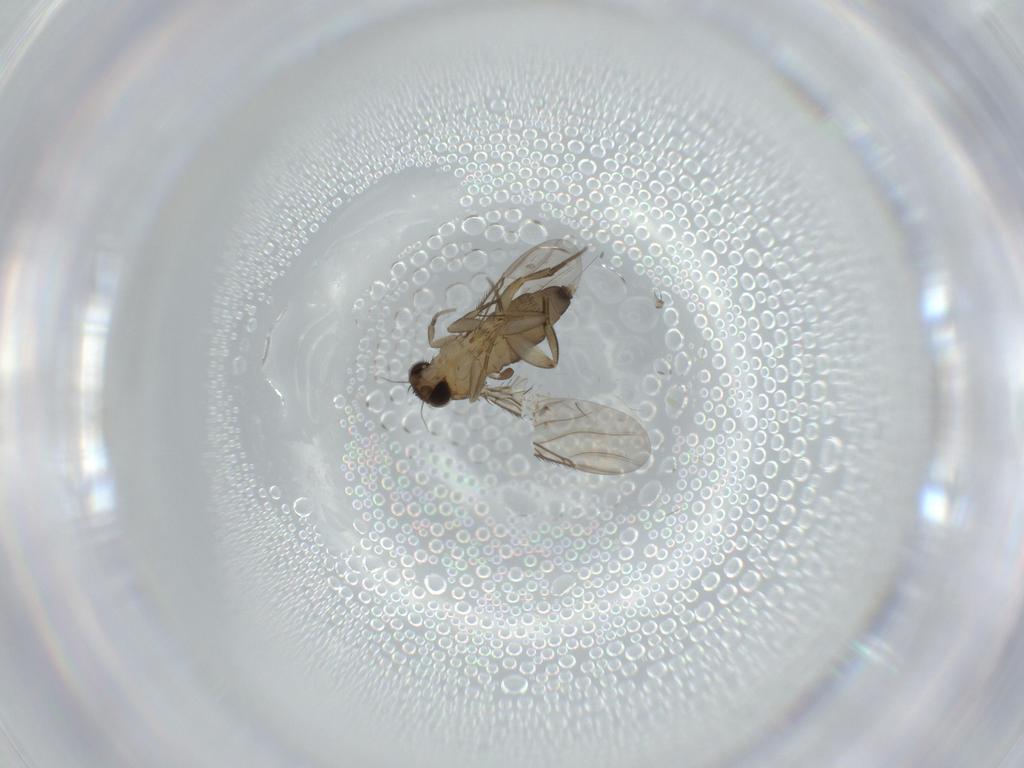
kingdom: Animalia
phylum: Arthropoda
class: Insecta
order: Diptera
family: Phoridae
